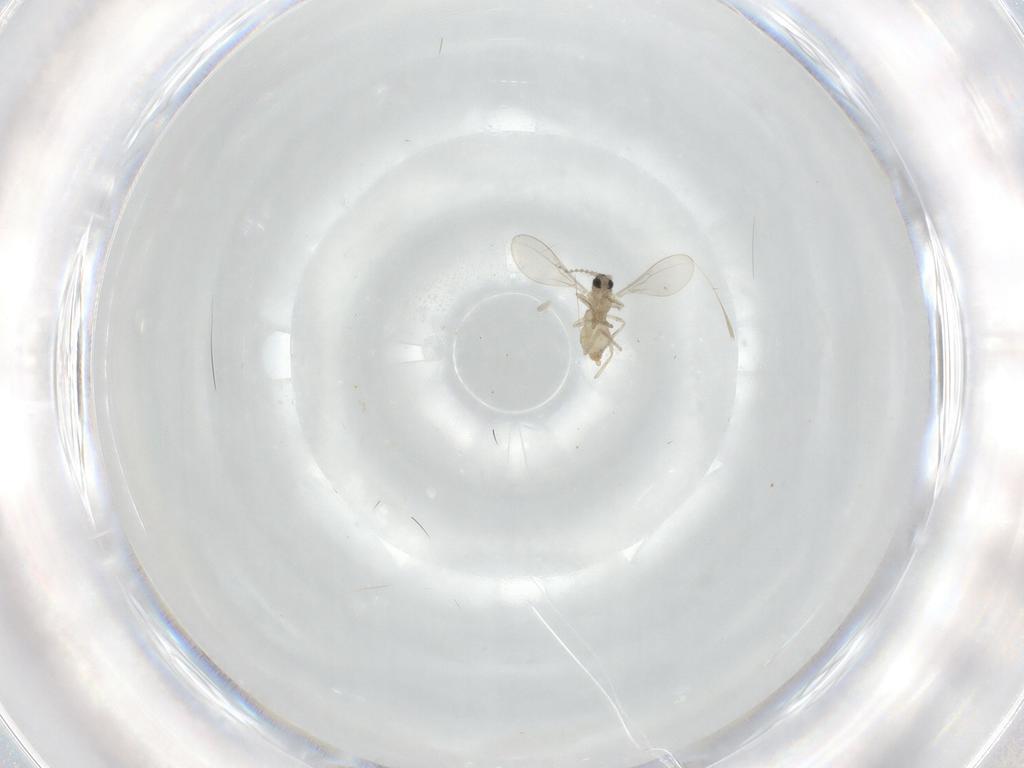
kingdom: Animalia
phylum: Arthropoda
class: Insecta
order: Diptera
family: Cecidomyiidae
